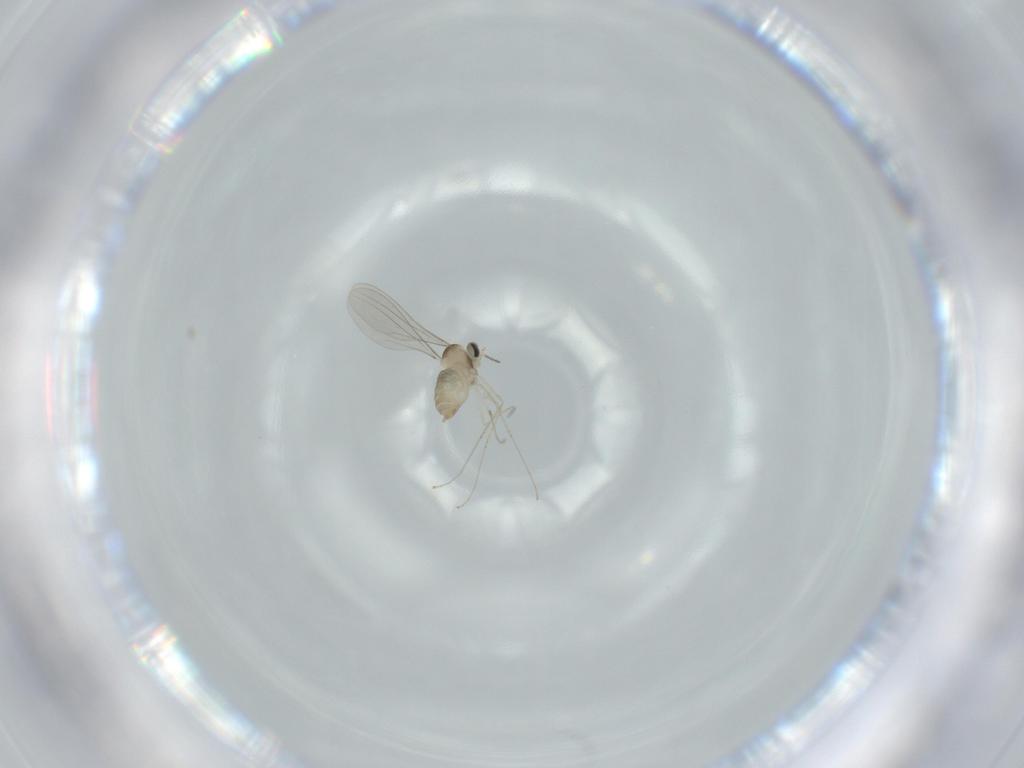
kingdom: Animalia
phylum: Arthropoda
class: Insecta
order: Diptera
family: Cecidomyiidae
